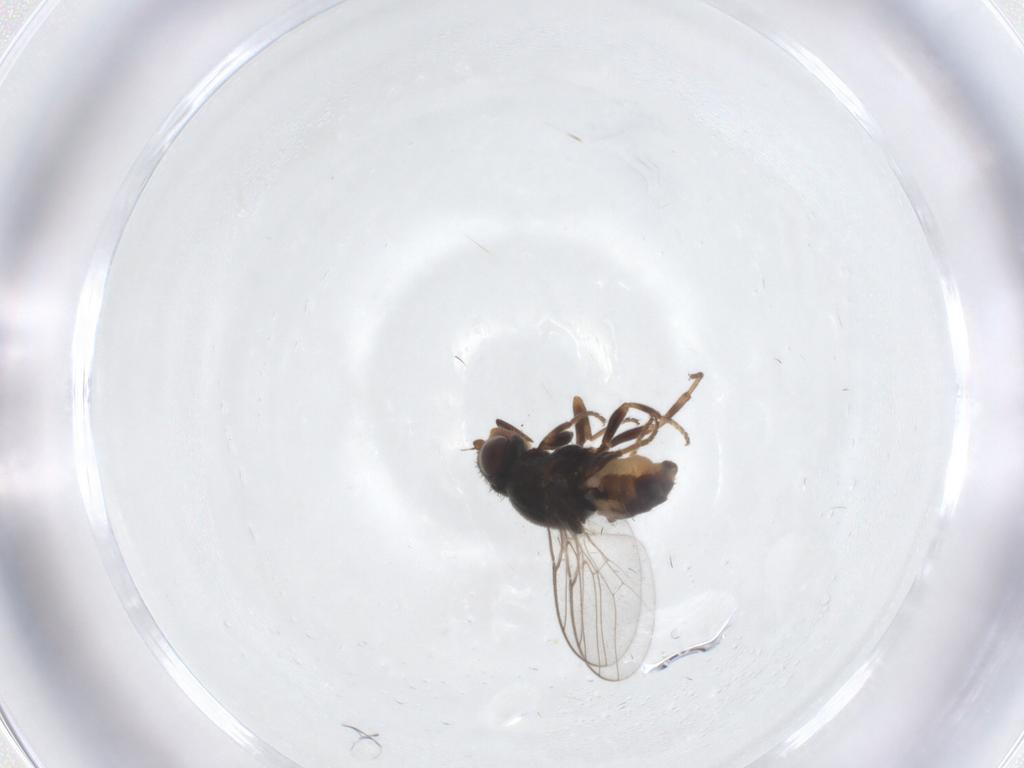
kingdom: Animalia
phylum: Arthropoda
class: Insecta
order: Diptera
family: Chloropidae
